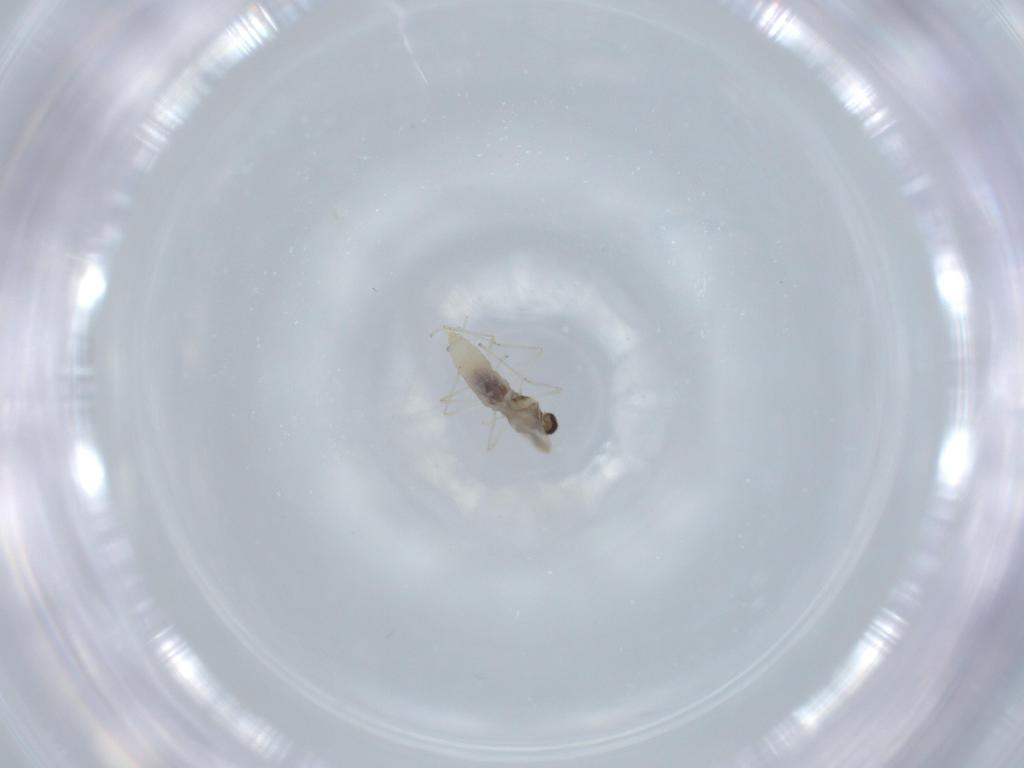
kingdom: Animalia
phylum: Arthropoda
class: Insecta
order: Diptera
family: Cecidomyiidae
